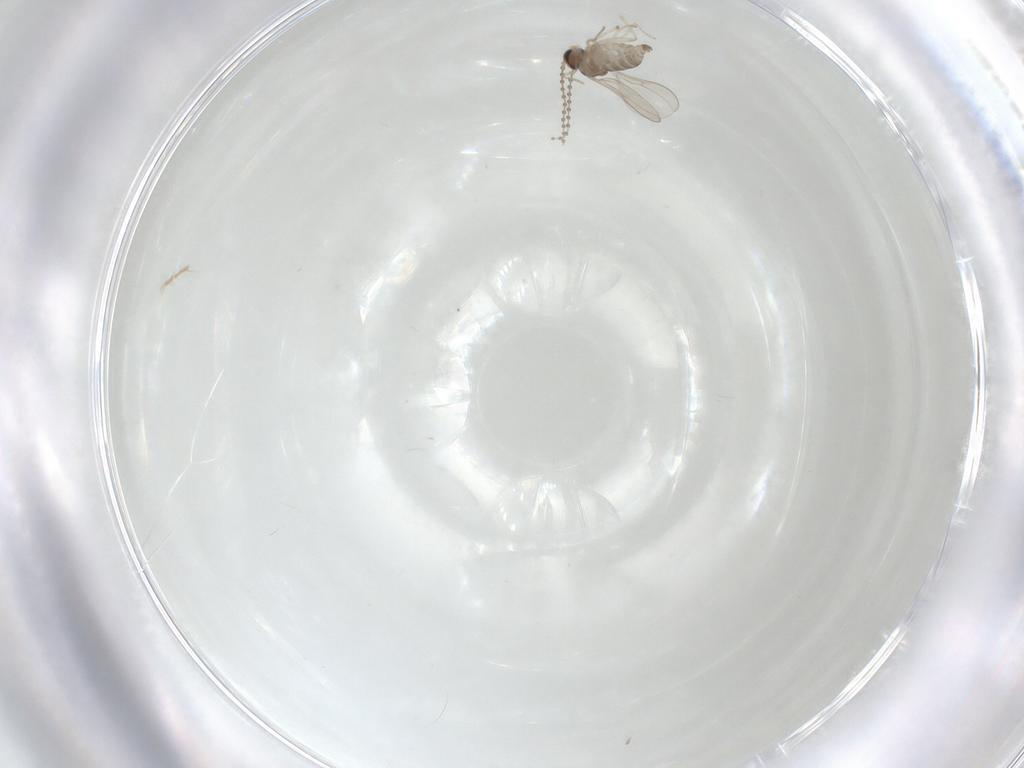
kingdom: Animalia
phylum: Arthropoda
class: Insecta
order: Diptera
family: Cecidomyiidae
